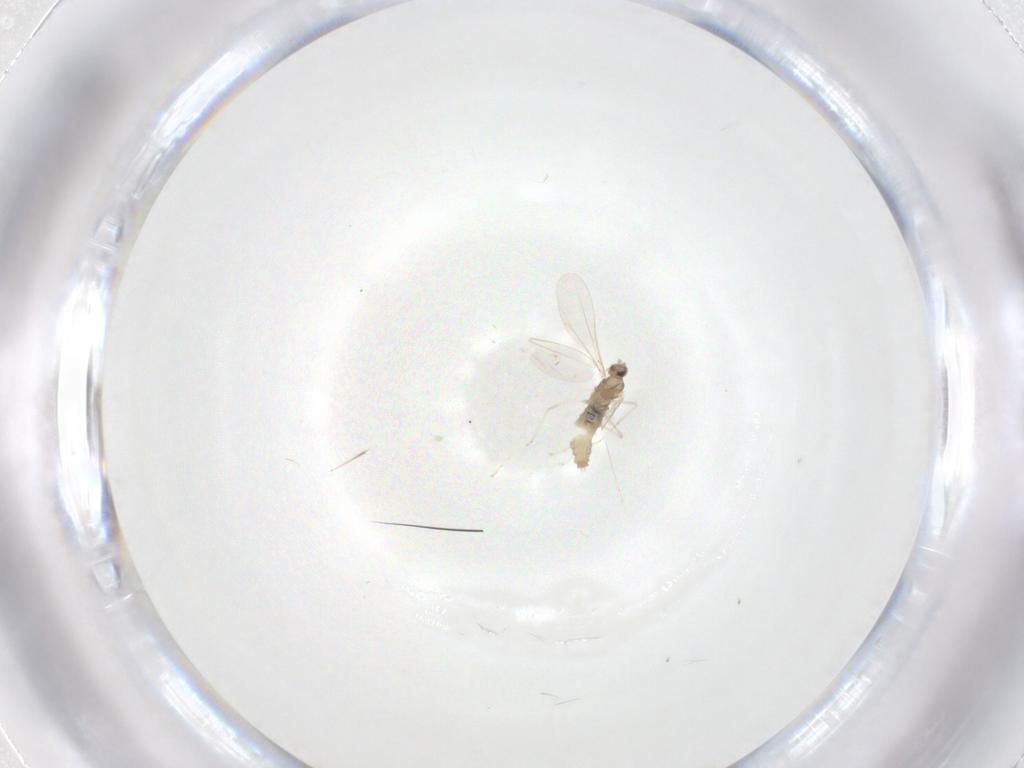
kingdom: Animalia
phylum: Arthropoda
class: Insecta
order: Diptera
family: Cecidomyiidae
